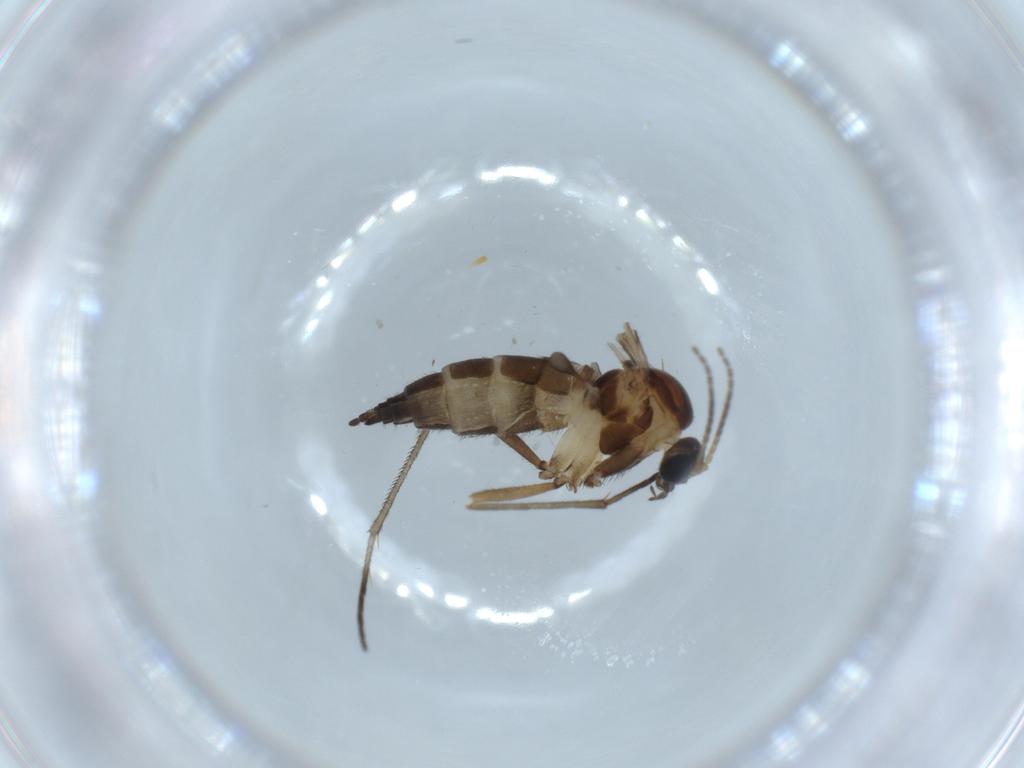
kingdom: Animalia
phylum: Arthropoda
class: Insecta
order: Diptera
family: Sciaridae
